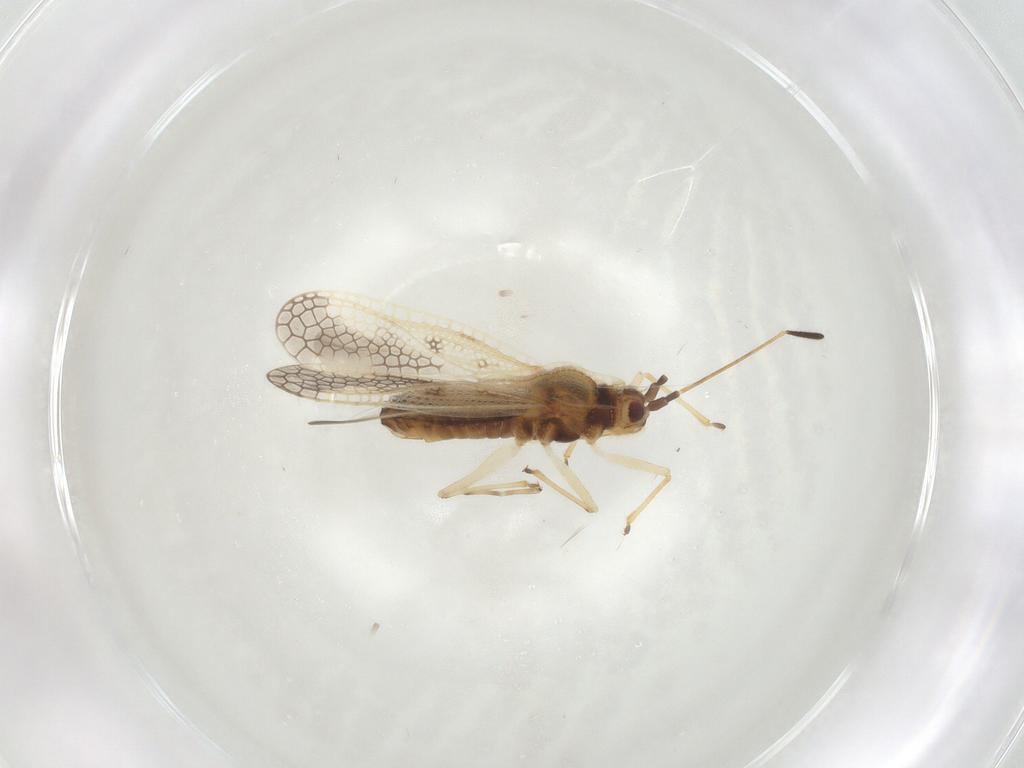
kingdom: Animalia
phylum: Arthropoda
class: Insecta
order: Hemiptera
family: Tingidae
